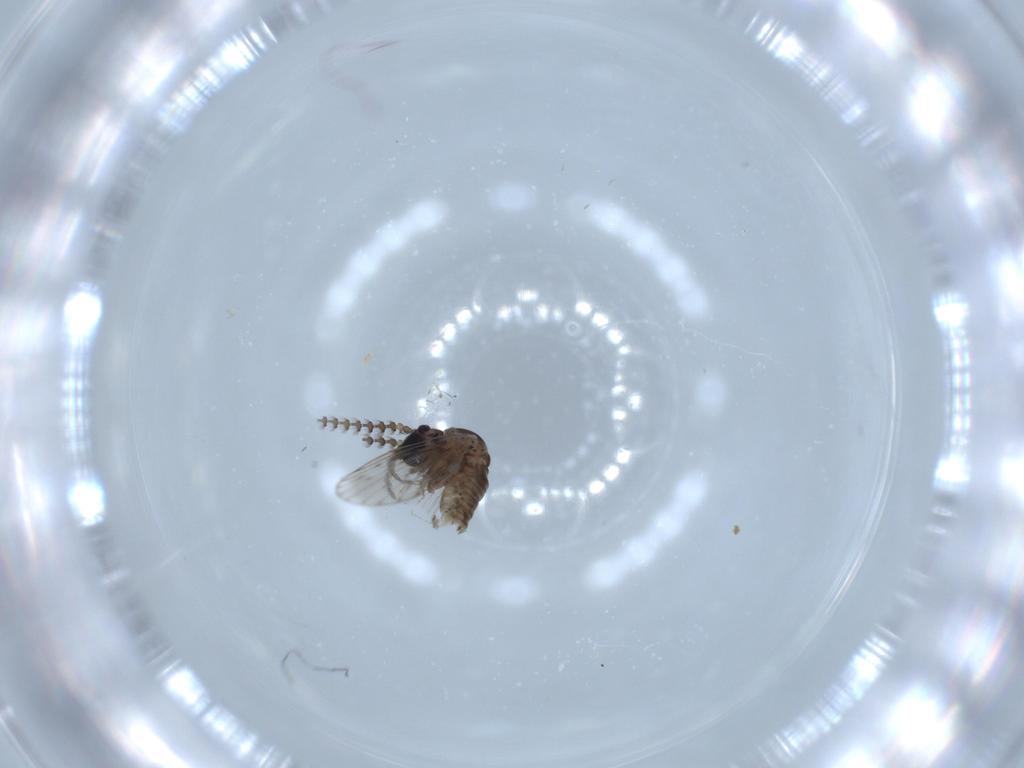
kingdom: Animalia
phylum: Arthropoda
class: Insecta
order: Diptera
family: Psychodidae
